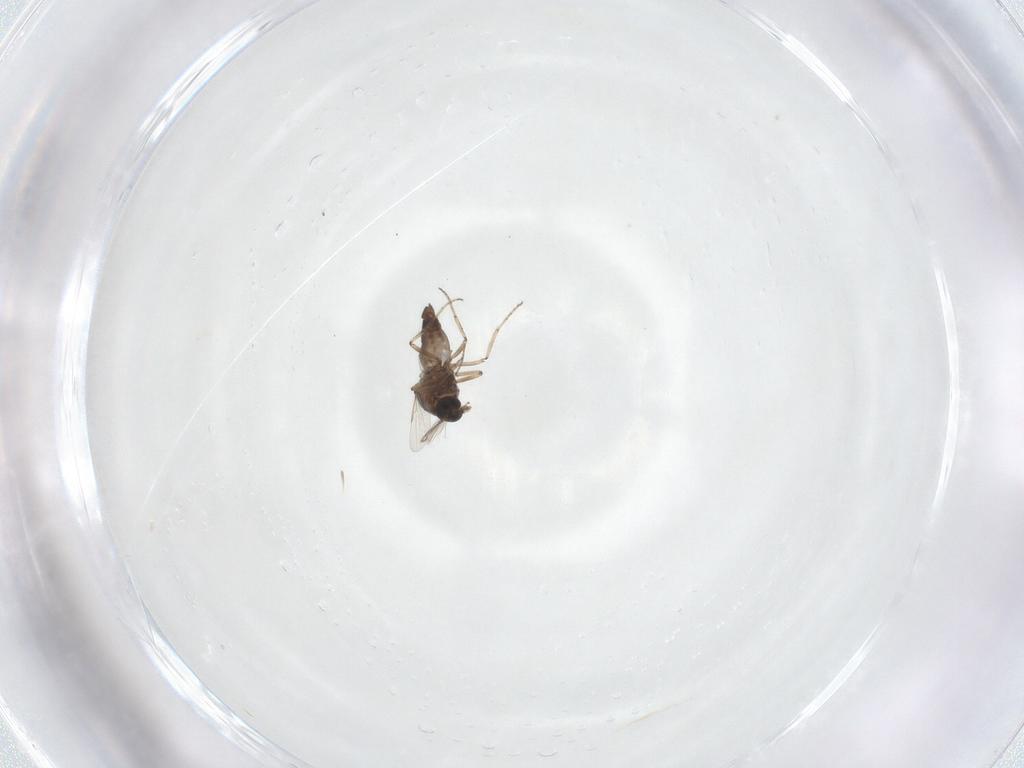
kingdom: Animalia
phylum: Arthropoda
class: Insecta
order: Diptera
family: Ceratopogonidae
